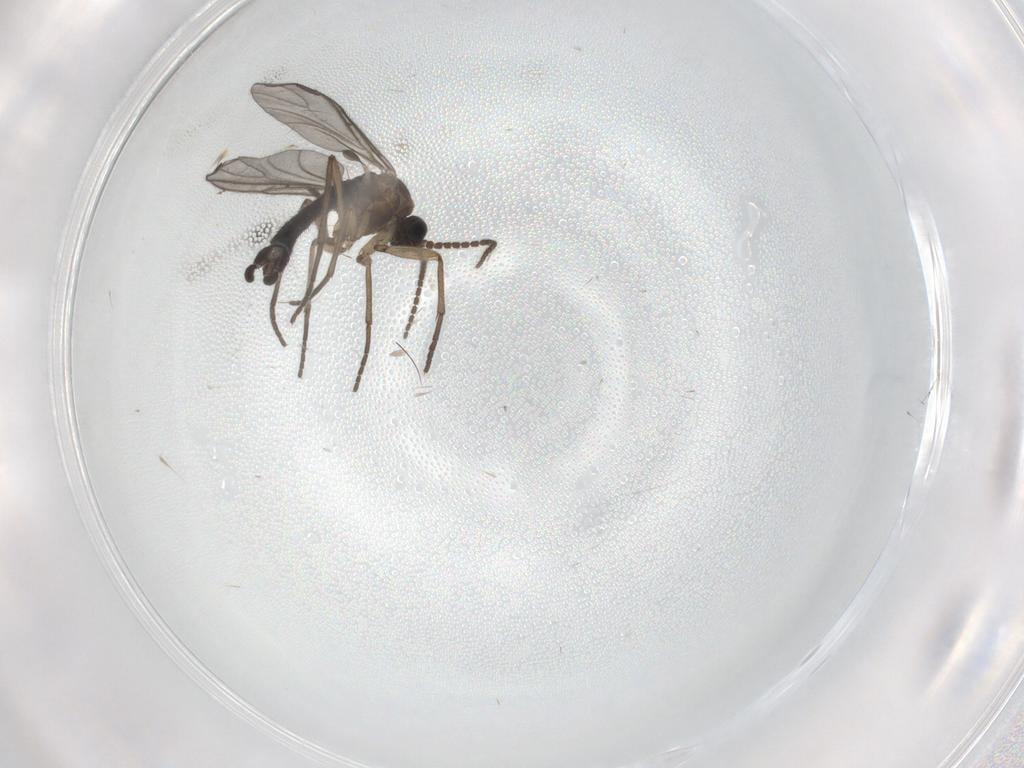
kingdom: Animalia
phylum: Arthropoda
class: Insecta
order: Diptera
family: Sciaridae
